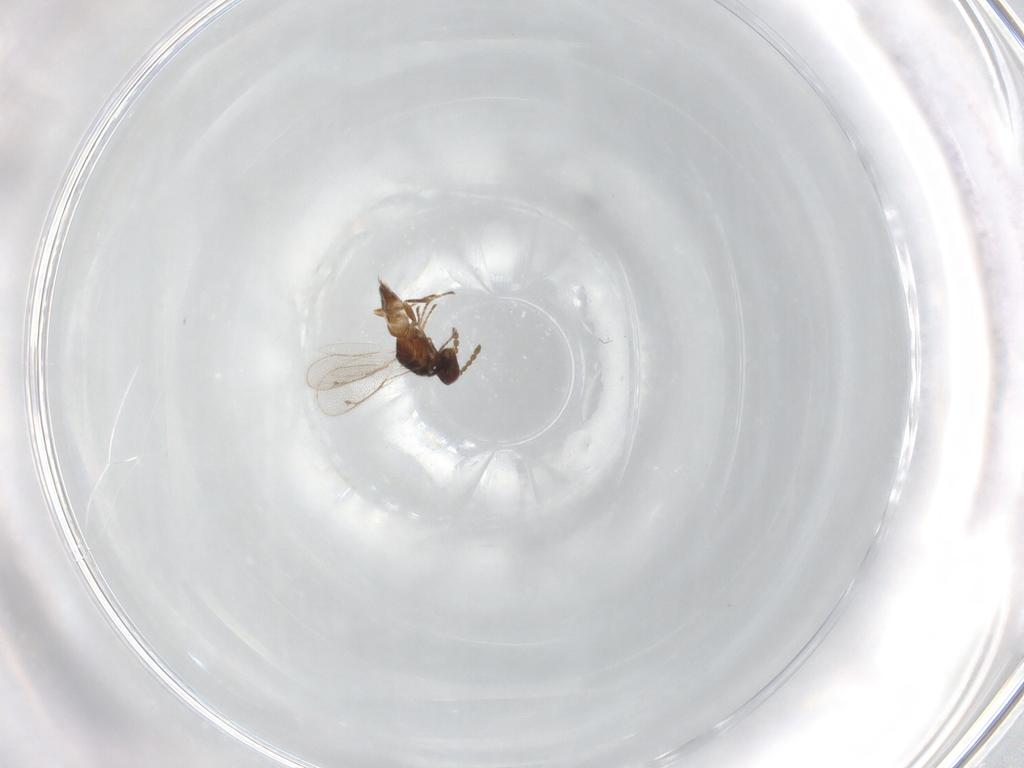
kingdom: Animalia
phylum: Arthropoda
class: Insecta
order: Hymenoptera
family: Eulophidae
